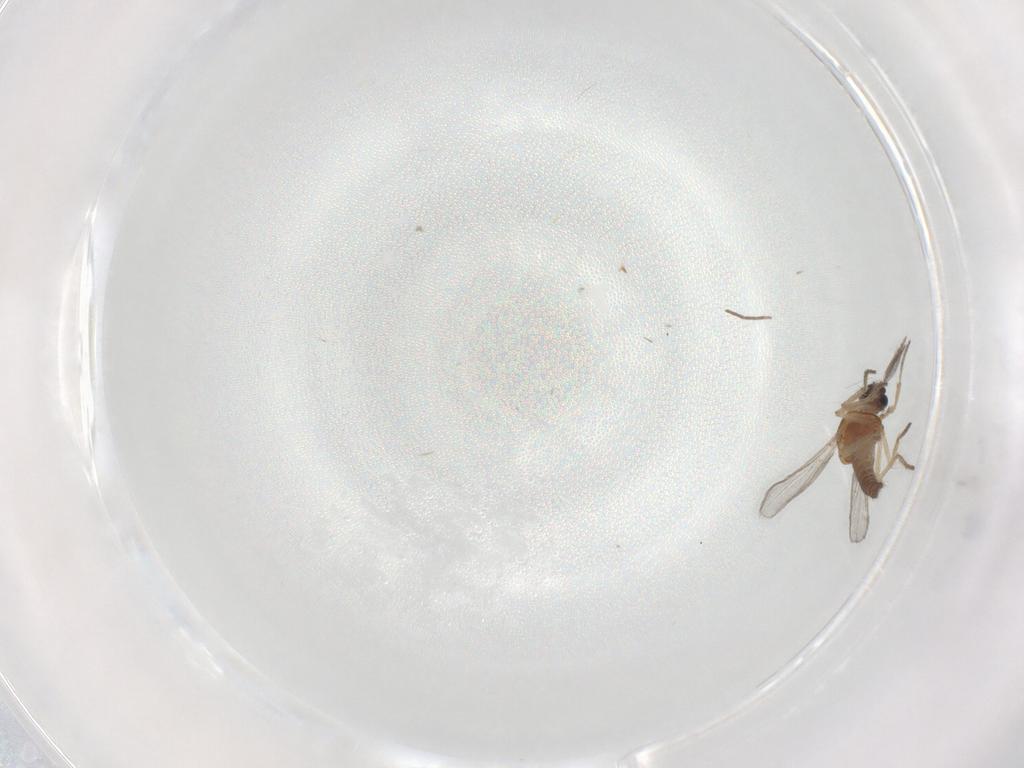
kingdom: Animalia
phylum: Arthropoda
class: Insecta
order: Diptera
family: Ceratopogonidae
